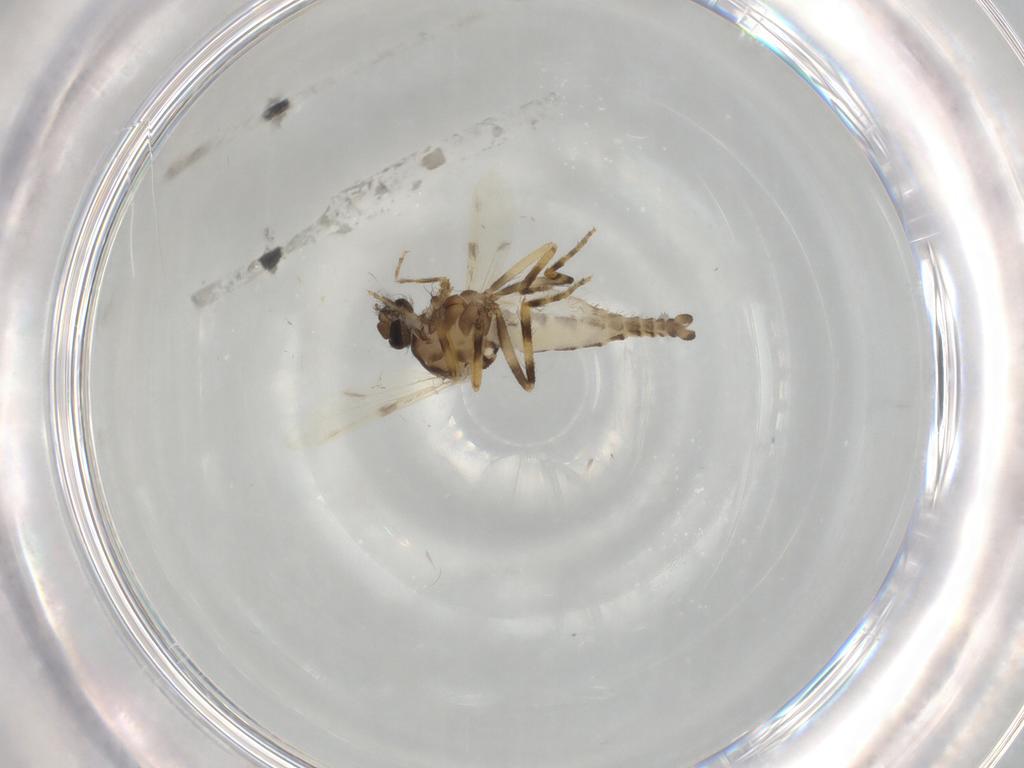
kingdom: Animalia
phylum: Arthropoda
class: Insecta
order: Diptera
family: Ceratopogonidae
